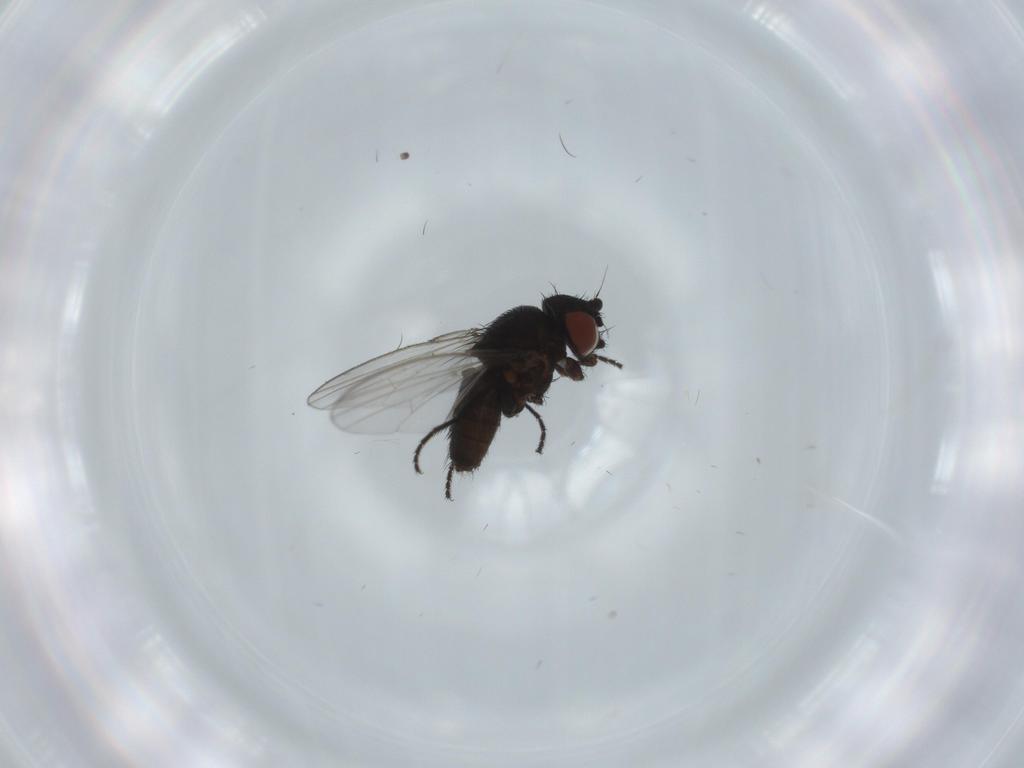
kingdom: Animalia
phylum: Arthropoda
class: Insecta
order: Diptera
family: Milichiidae
